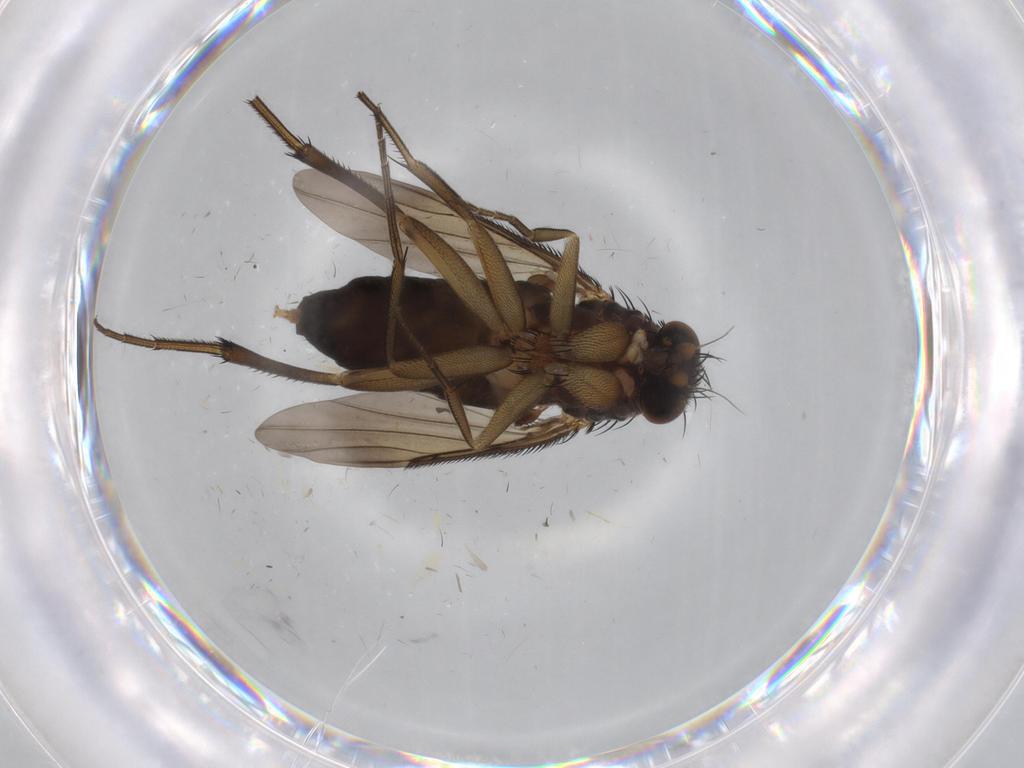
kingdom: Animalia
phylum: Arthropoda
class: Insecta
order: Diptera
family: Phoridae
